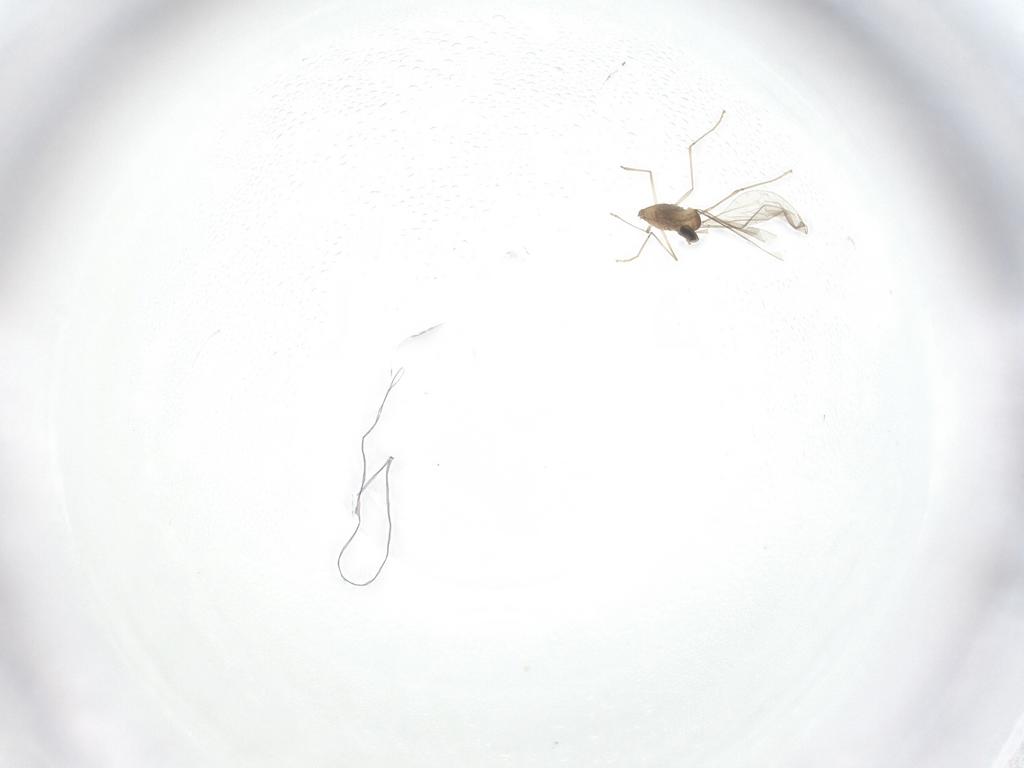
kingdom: Animalia
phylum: Arthropoda
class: Insecta
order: Diptera
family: Cecidomyiidae
